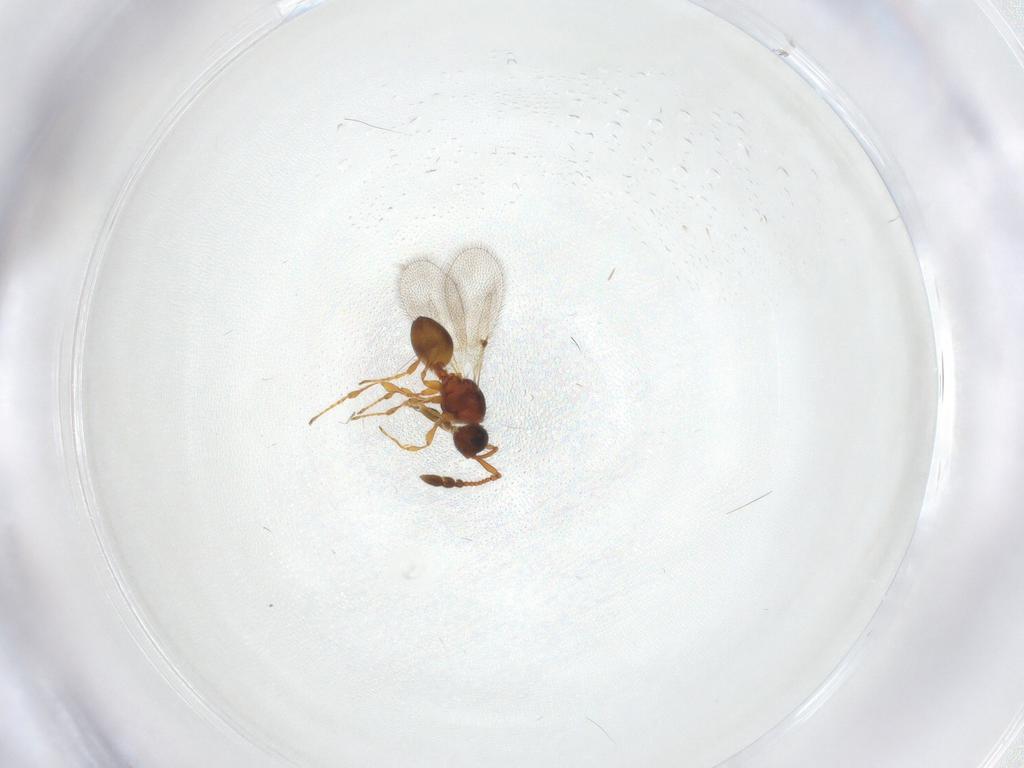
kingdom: Animalia
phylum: Arthropoda
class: Insecta
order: Hymenoptera
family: Diapriidae
